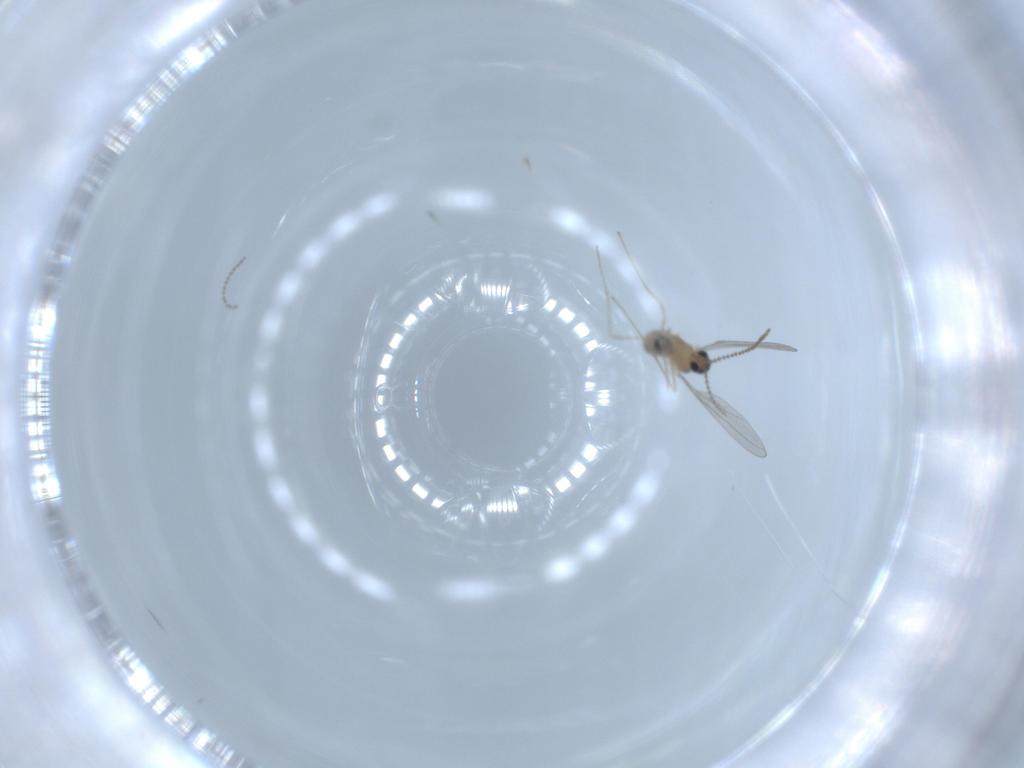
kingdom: Animalia
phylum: Arthropoda
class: Insecta
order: Diptera
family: Cecidomyiidae
